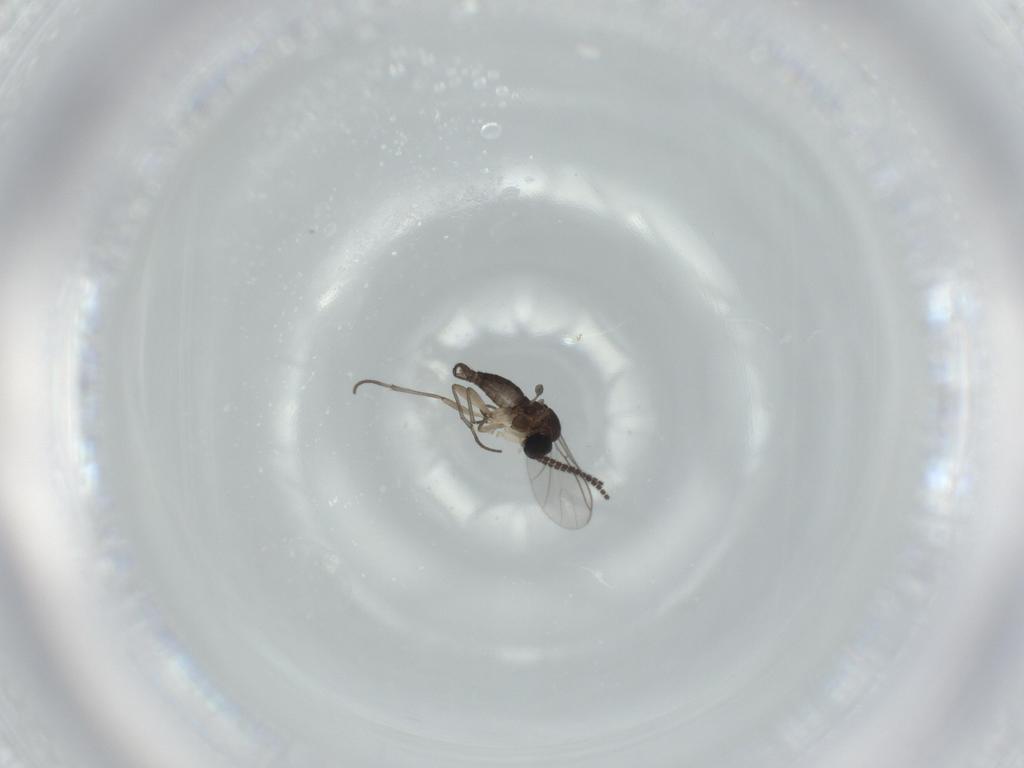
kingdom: Animalia
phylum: Arthropoda
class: Insecta
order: Diptera
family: Sciaridae
